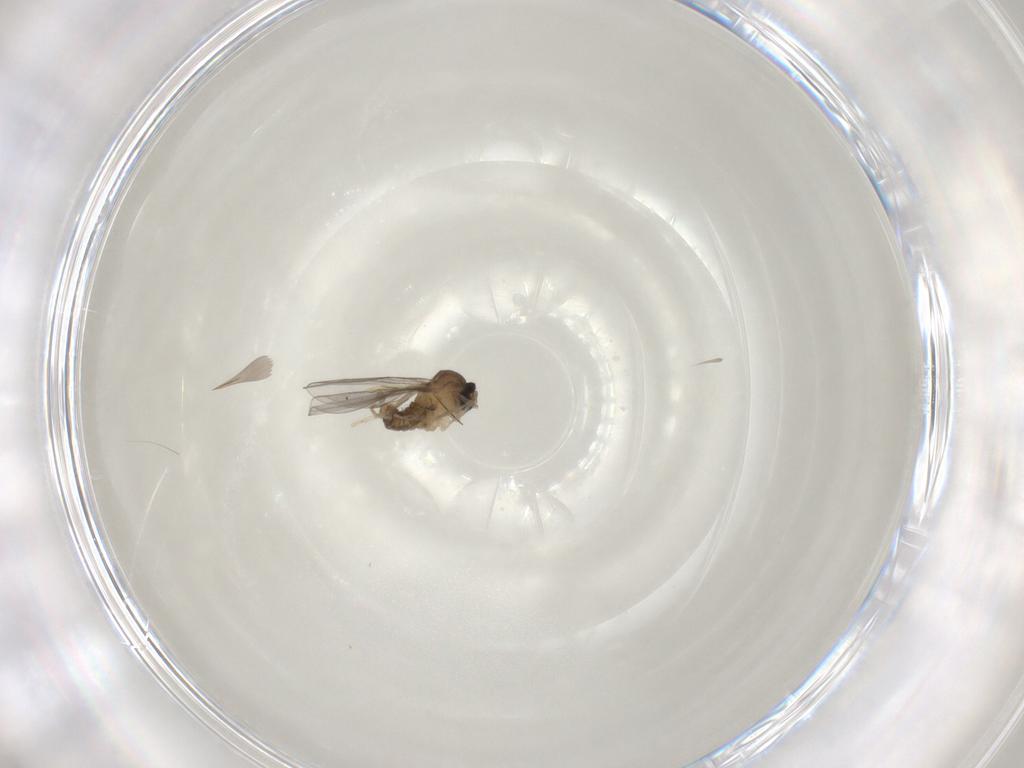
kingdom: Animalia
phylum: Arthropoda
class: Insecta
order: Diptera
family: Cecidomyiidae
